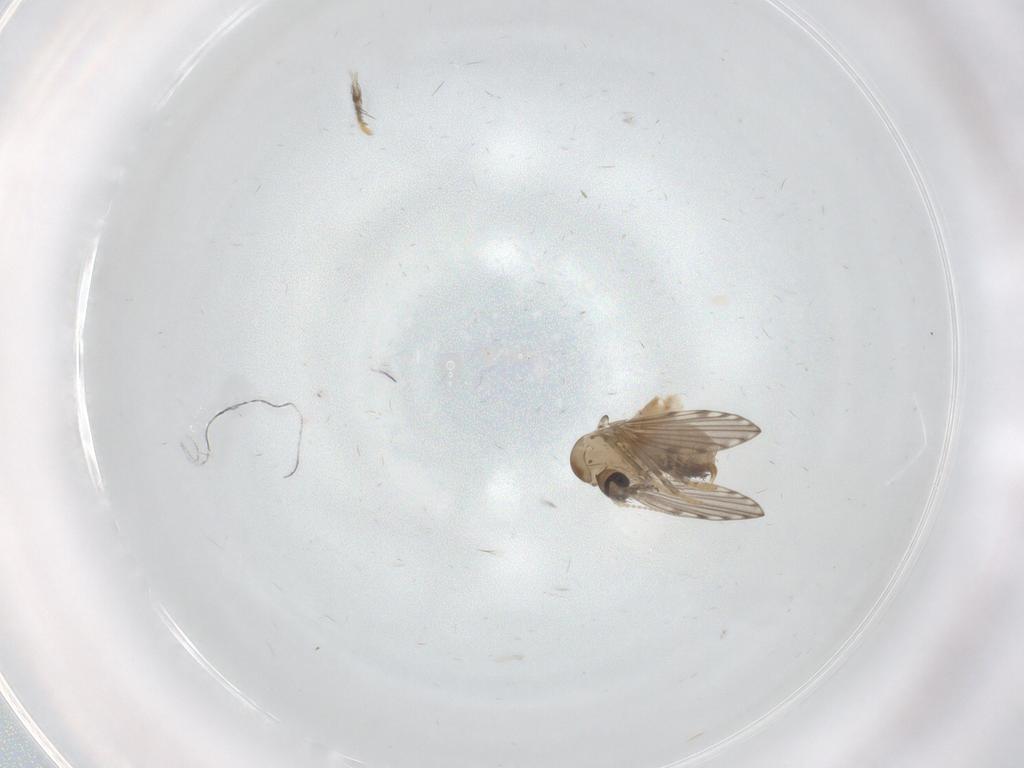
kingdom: Animalia
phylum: Arthropoda
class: Insecta
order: Diptera
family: Psychodidae
